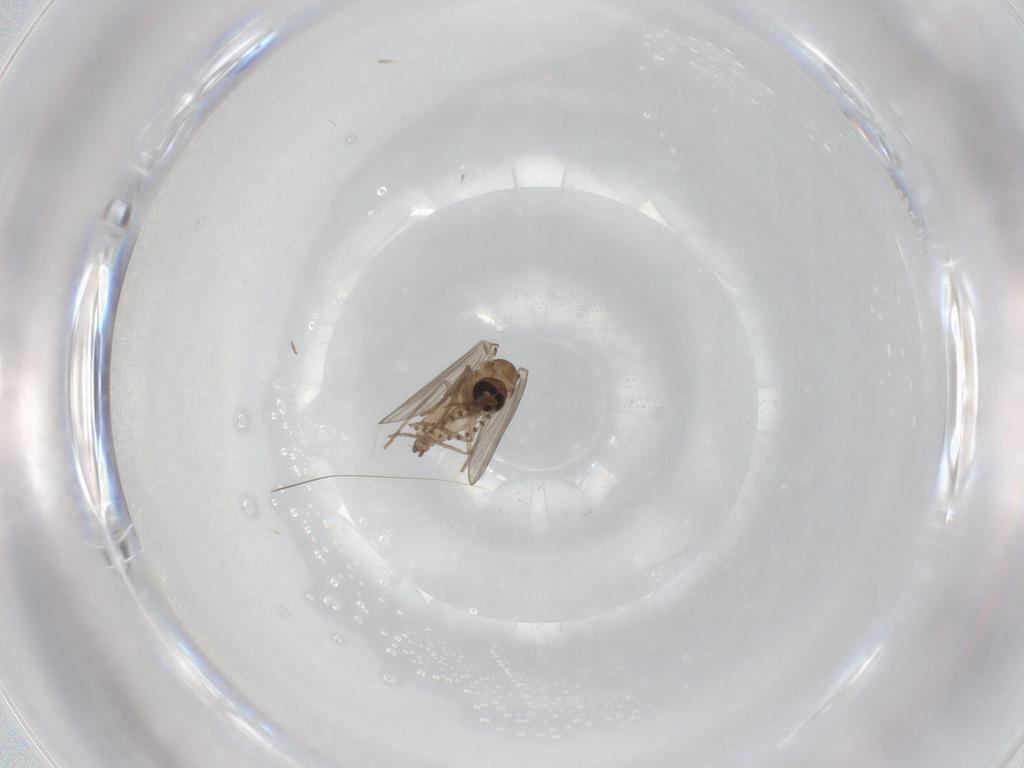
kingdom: Animalia
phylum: Arthropoda
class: Insecta
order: Diptera
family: Psychodidae
